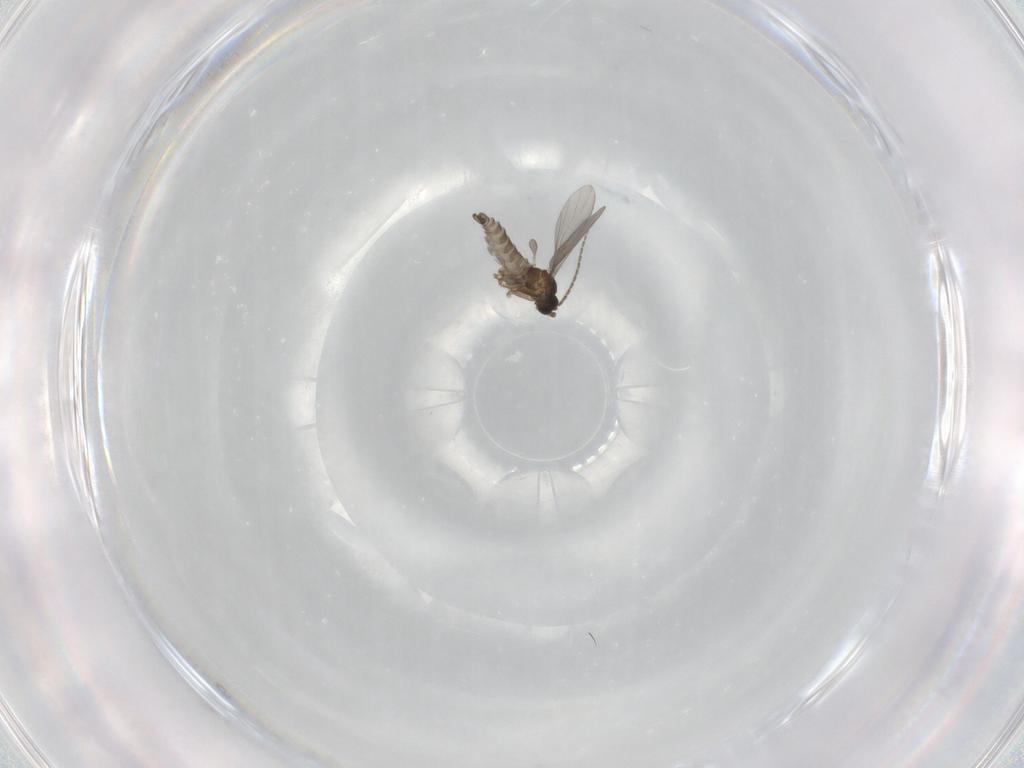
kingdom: Animalia
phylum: Arthropoda
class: Insecta
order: Diptera
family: Sciaridae
